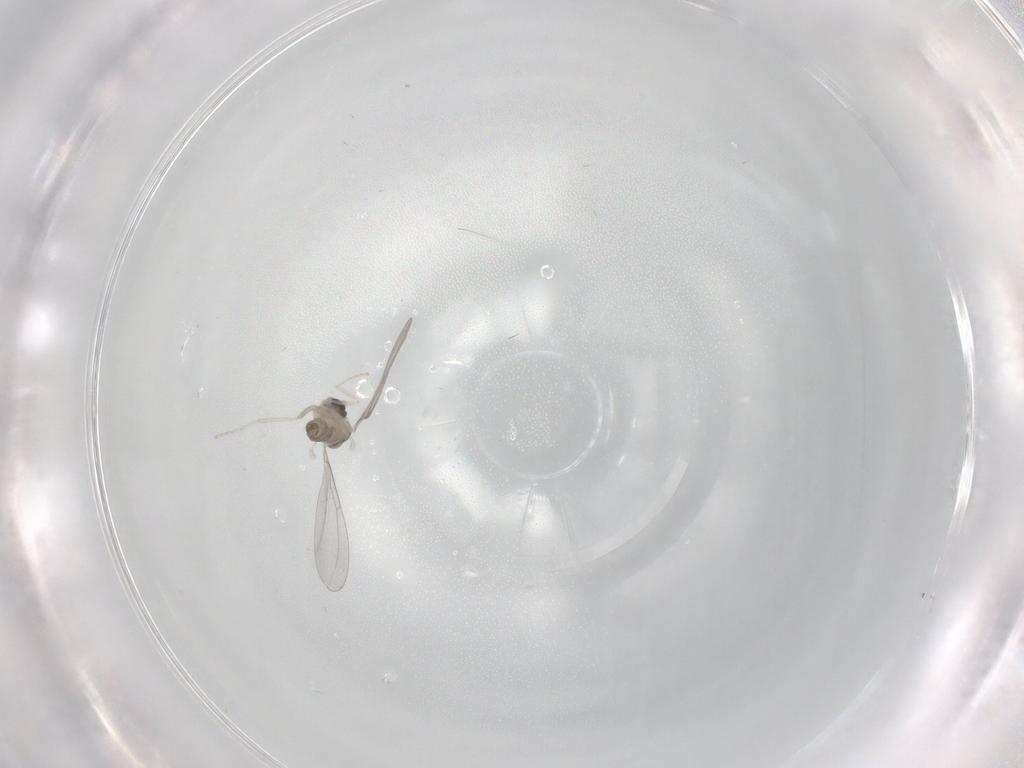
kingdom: Animalia
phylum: Arthropoda
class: Insecta
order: Diptera
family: Cecidomyiidae
